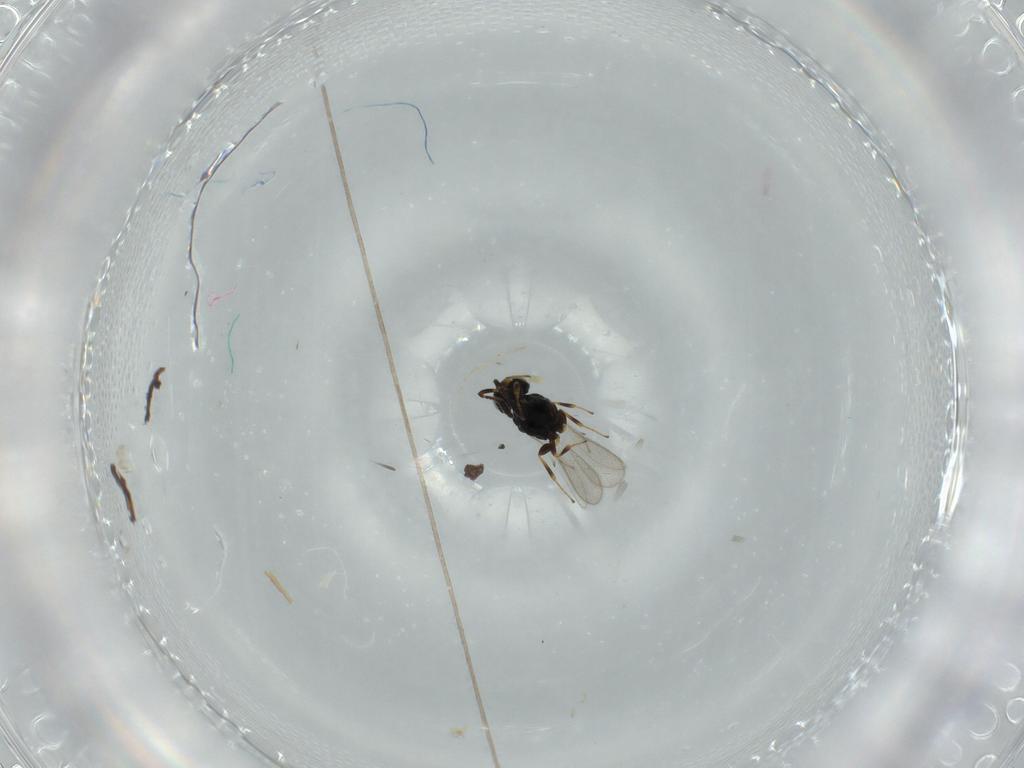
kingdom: Animalia
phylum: Arthropoda
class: Insecta
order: Hymenoptera
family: Scelionidae
